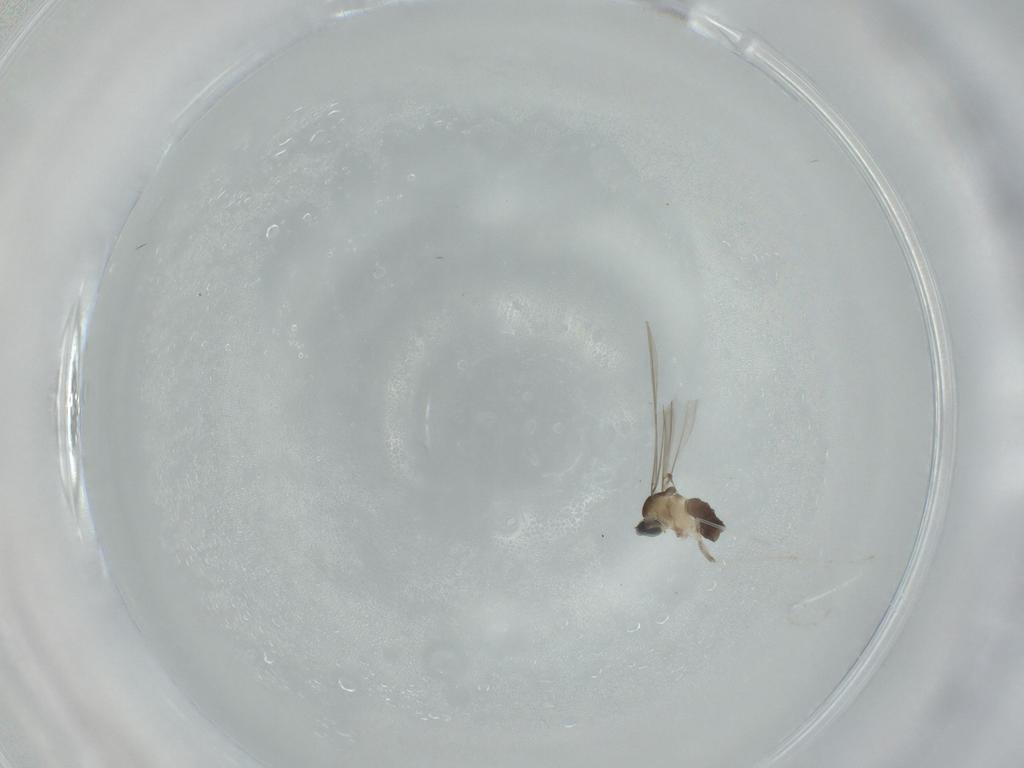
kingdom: Animalia
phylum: Arthropoda
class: Insecta
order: Diptera
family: Cecidomyiidae
